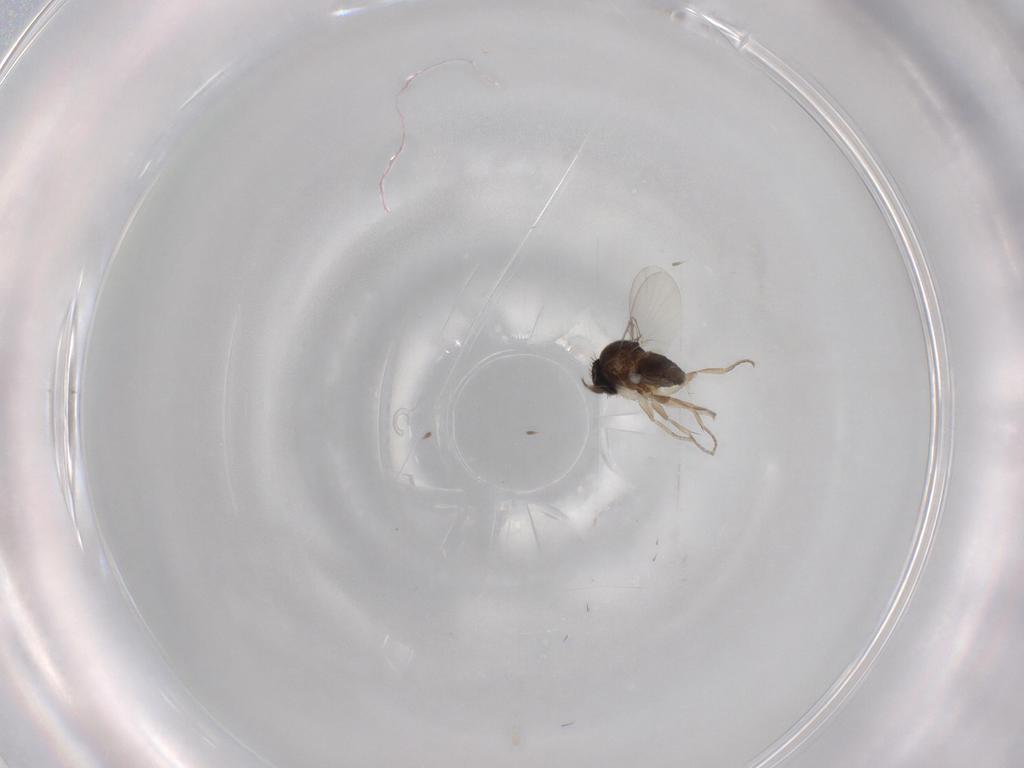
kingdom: Animalia
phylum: Arthropoda
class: Insecta
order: Diptera
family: Phoridae
